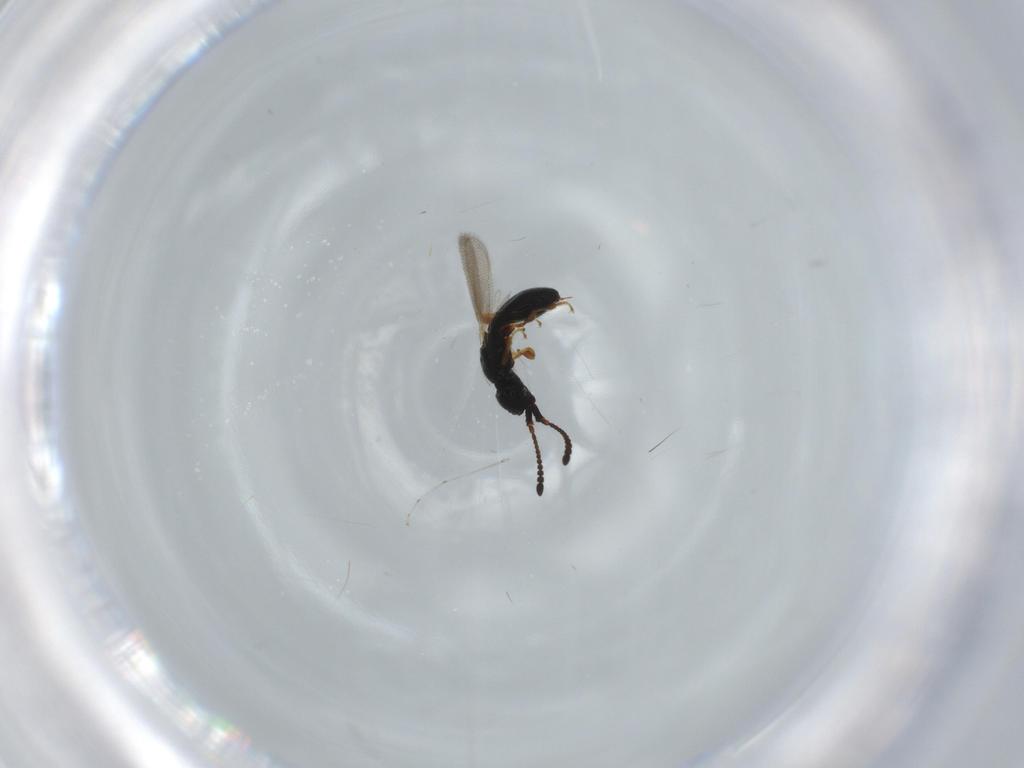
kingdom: Animalia
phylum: Arthropoda
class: Insecta
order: Hymenoptera
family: Diapriidae
